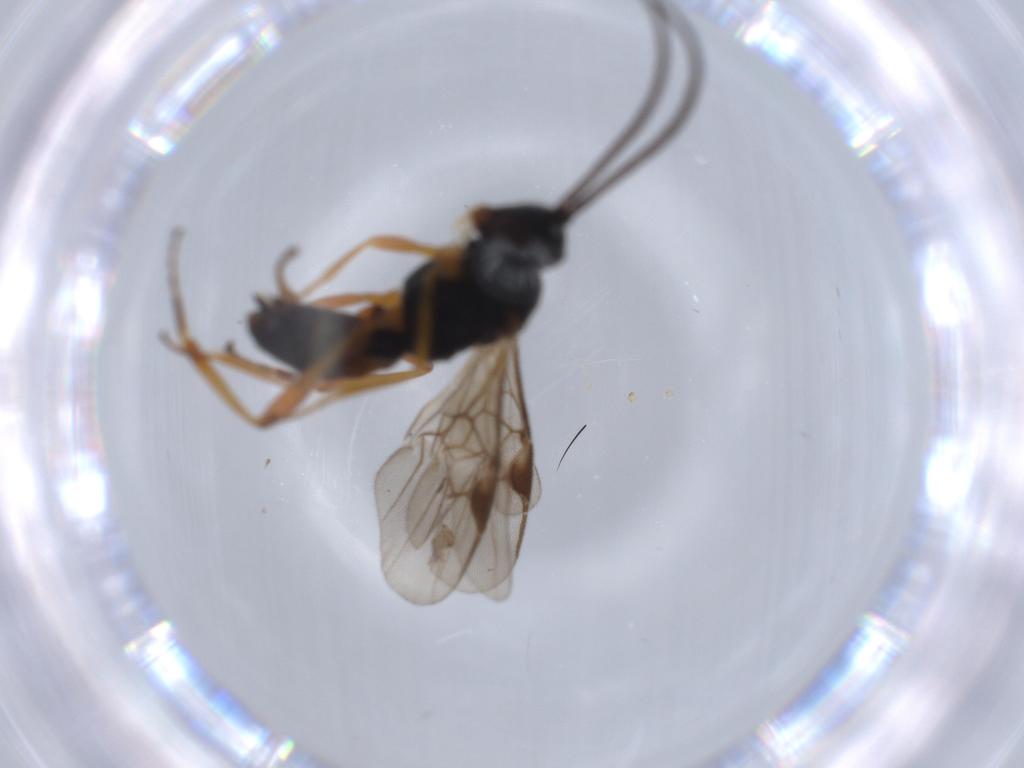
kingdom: Animalia
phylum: Arthropoda
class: Insecta
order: Hymenoptera
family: Braconidae
